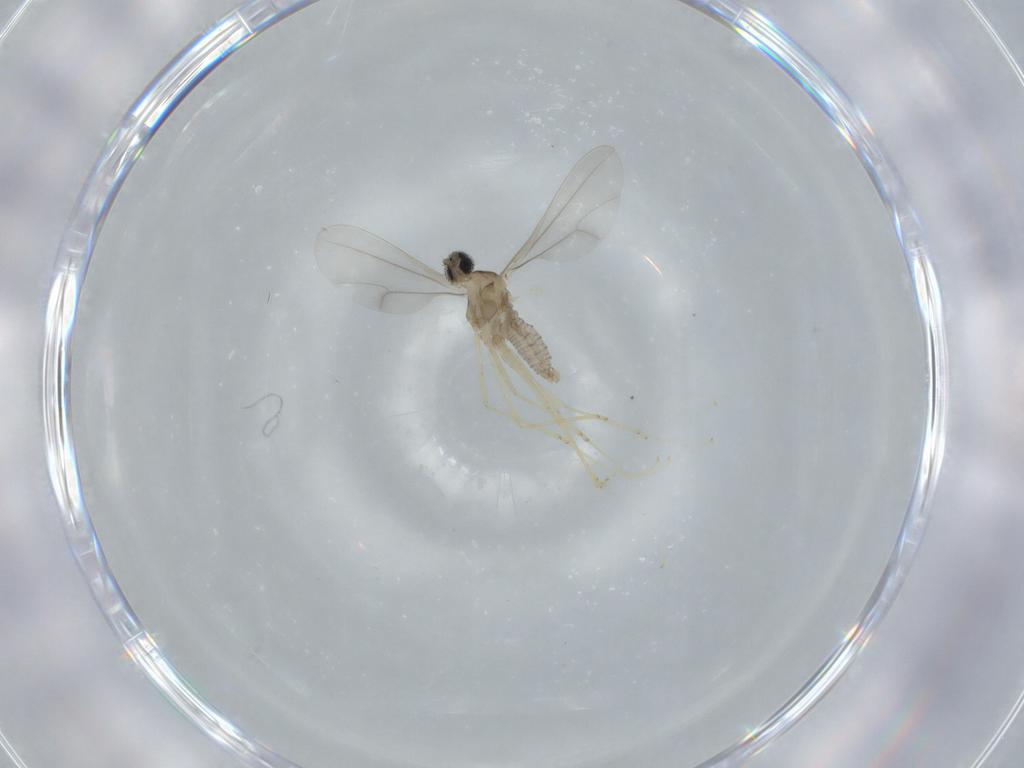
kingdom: Animalia
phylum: Arthropoda
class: Insecta
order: Diptera
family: Cecidomyiidae
